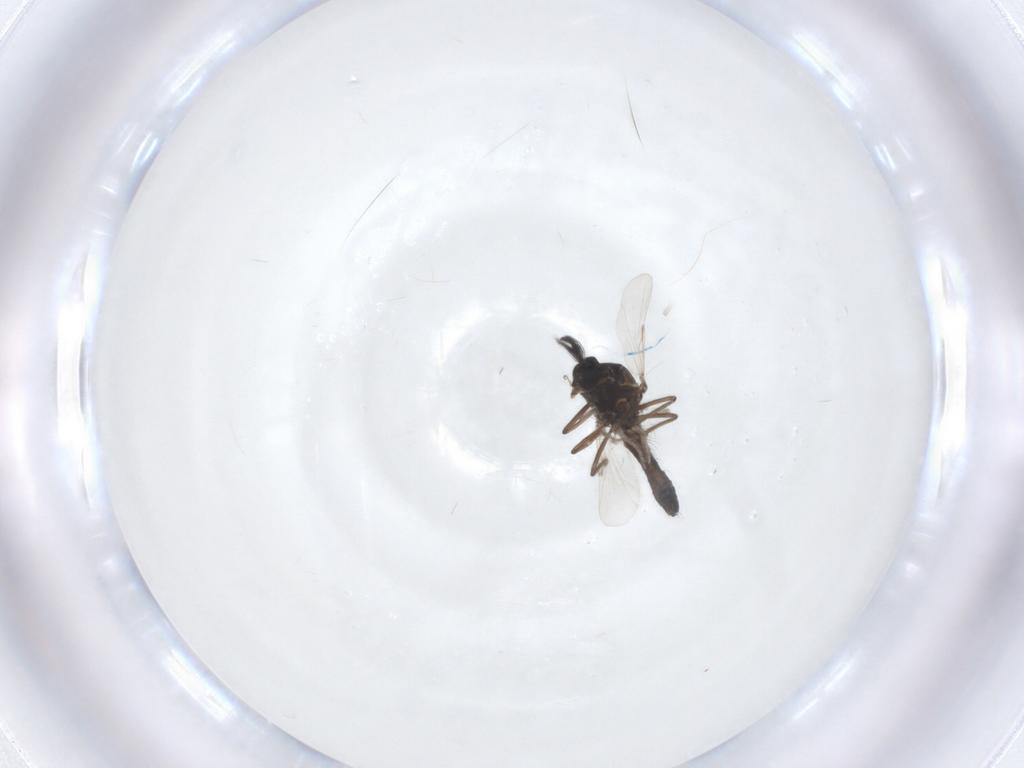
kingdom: Animalia
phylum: Arthropoda
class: Insecta
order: Diptera
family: Ceratopogonidae
